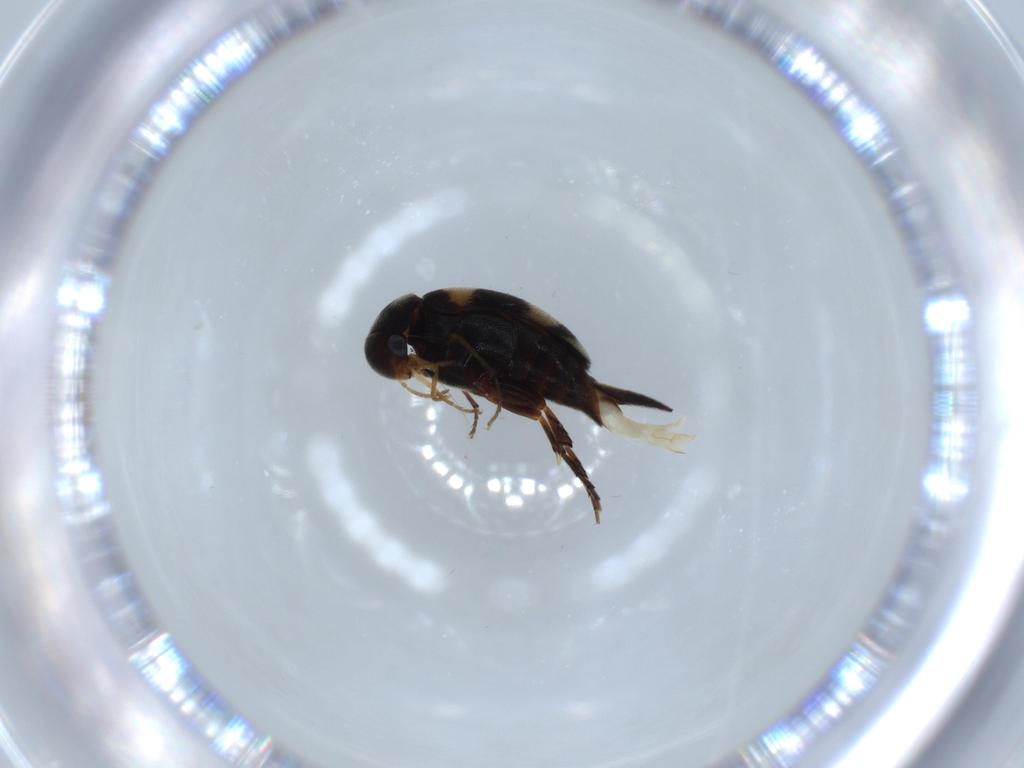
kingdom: Animalia
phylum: Arthropoda
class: Insecta
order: Coleoptera
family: Mordellidae
